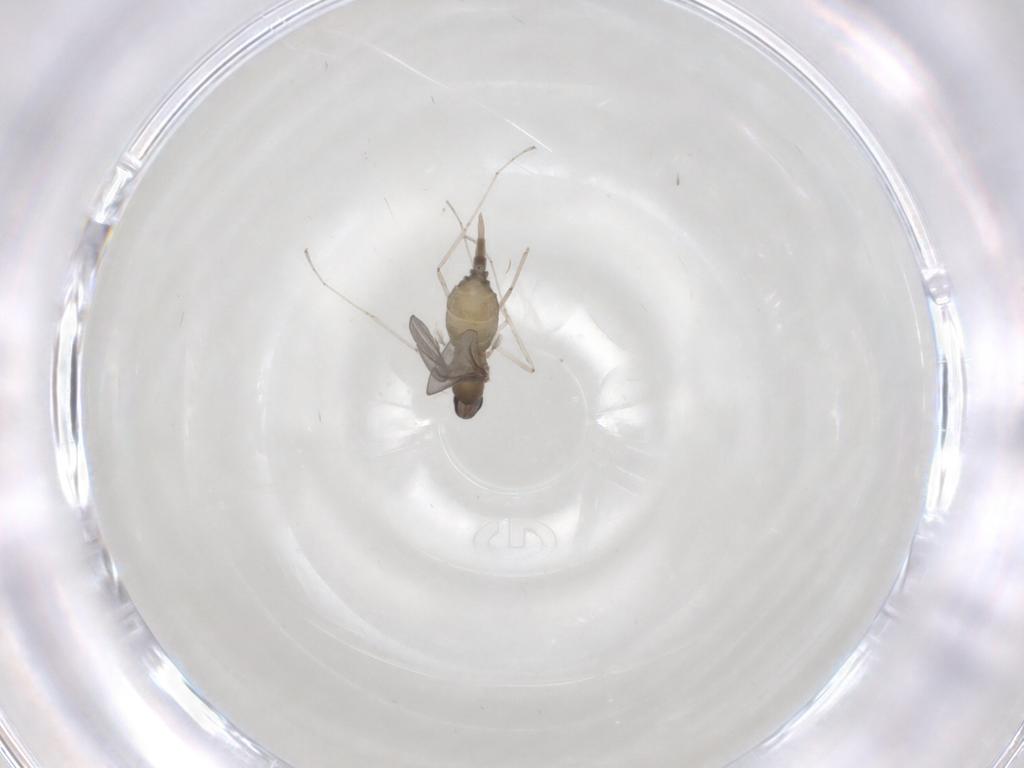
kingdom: Animalia
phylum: Arthropoda
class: Insecta
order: Diptera
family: Cecidomyiidae
